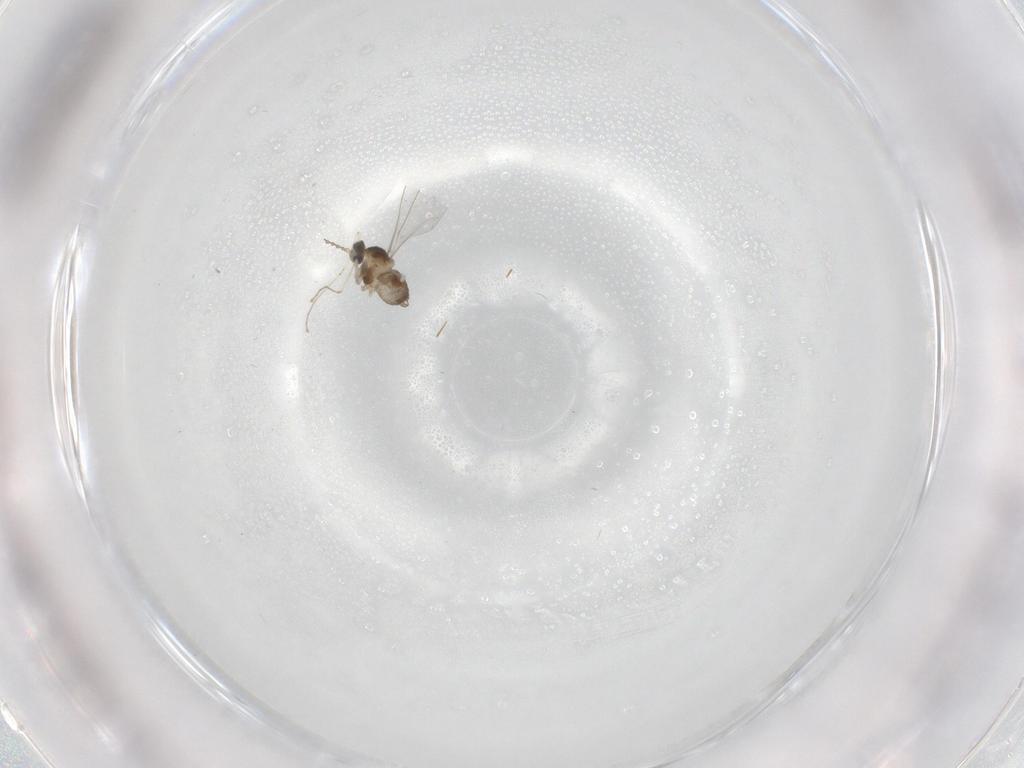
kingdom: Animalia
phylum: Arthropoda
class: Insecta
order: Diptera
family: Cecidomyiidae
